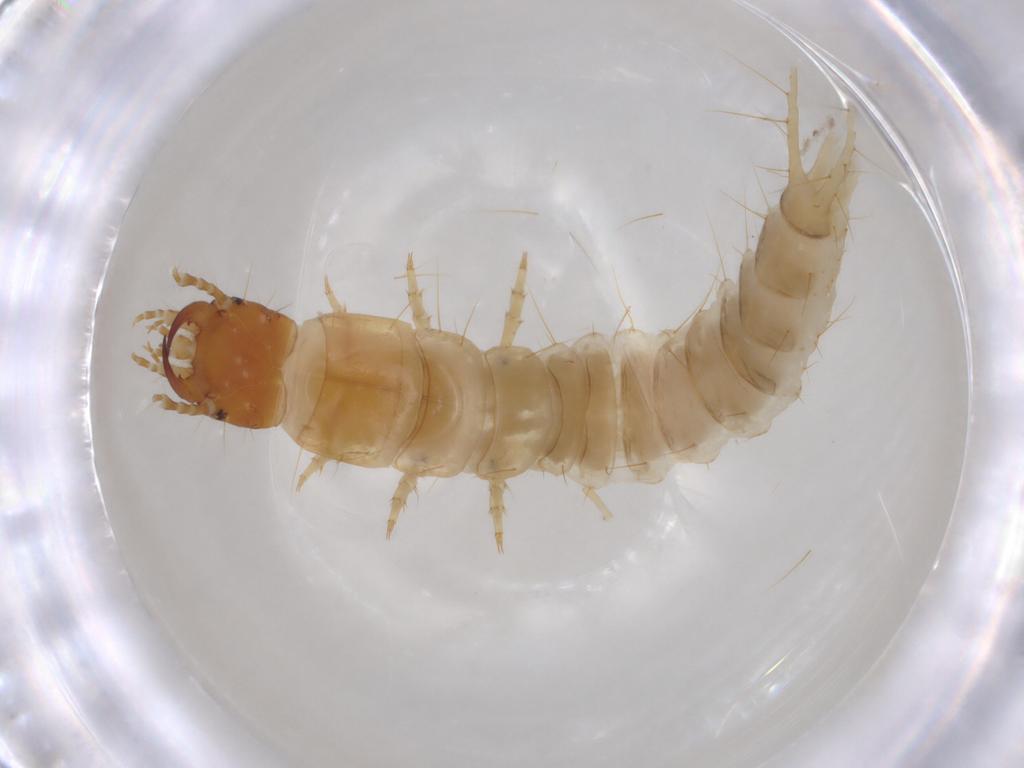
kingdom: Animalia
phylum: Arthropoda
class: Insecta
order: Coleoptera
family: Carabidae
